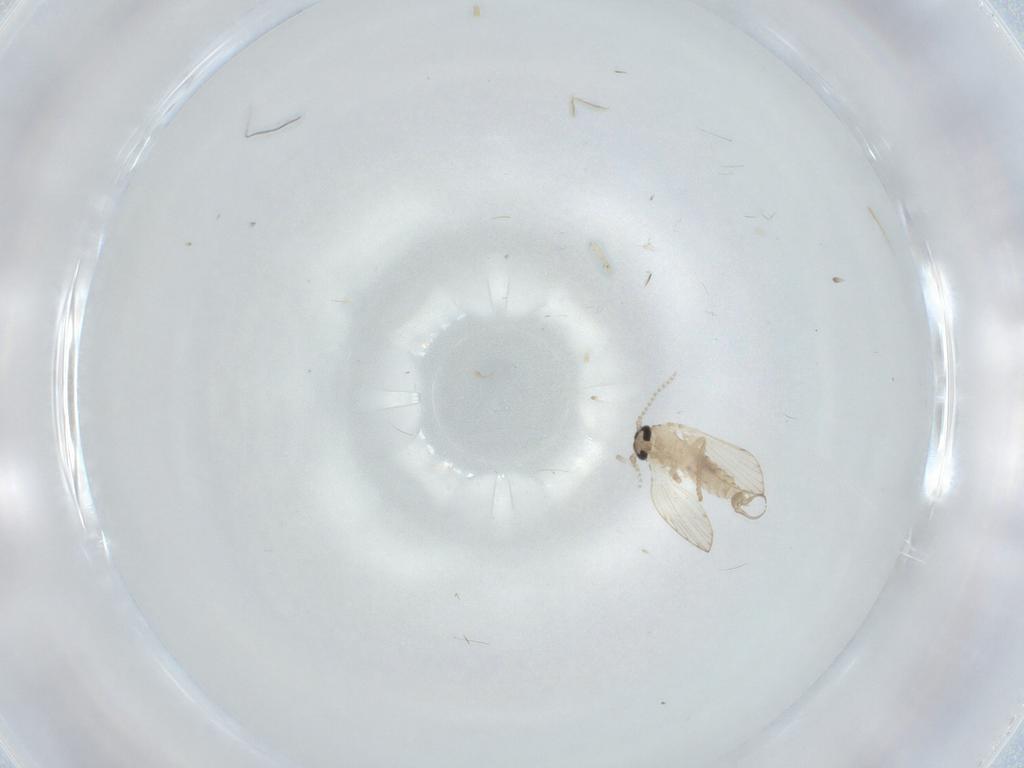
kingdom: Animalia
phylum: Arthropoda
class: Insecta
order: Diptera
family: Psychodidae
